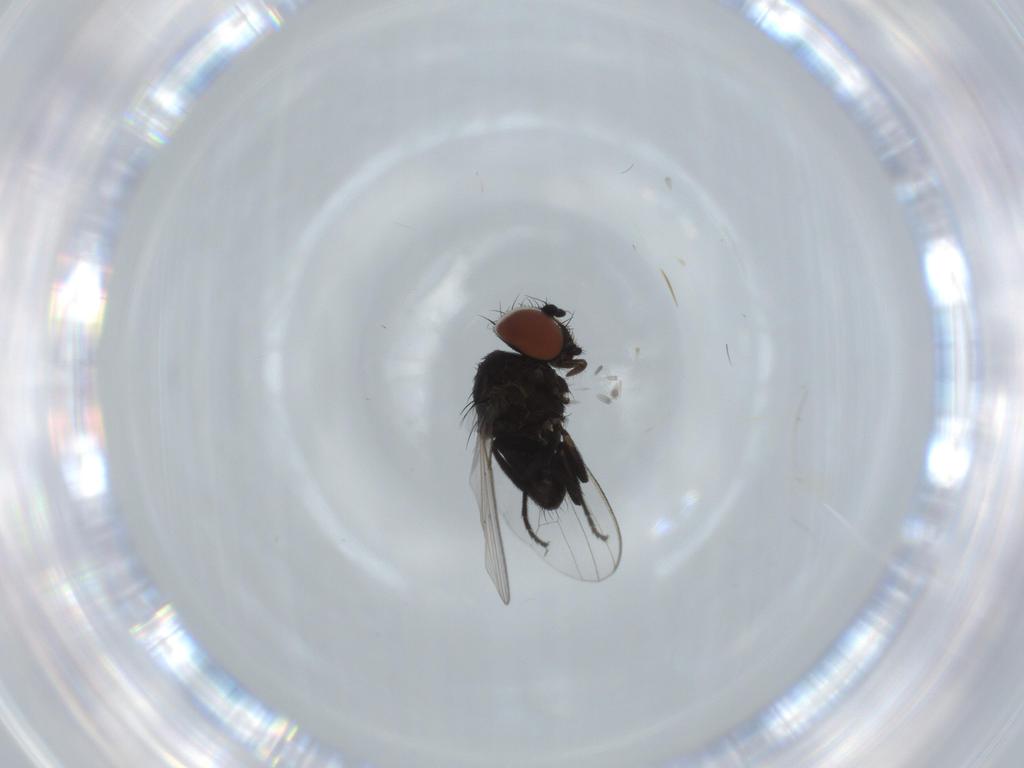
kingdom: Animalia
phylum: Arthropoda
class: Insecta
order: Diptera
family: Milichiidae
